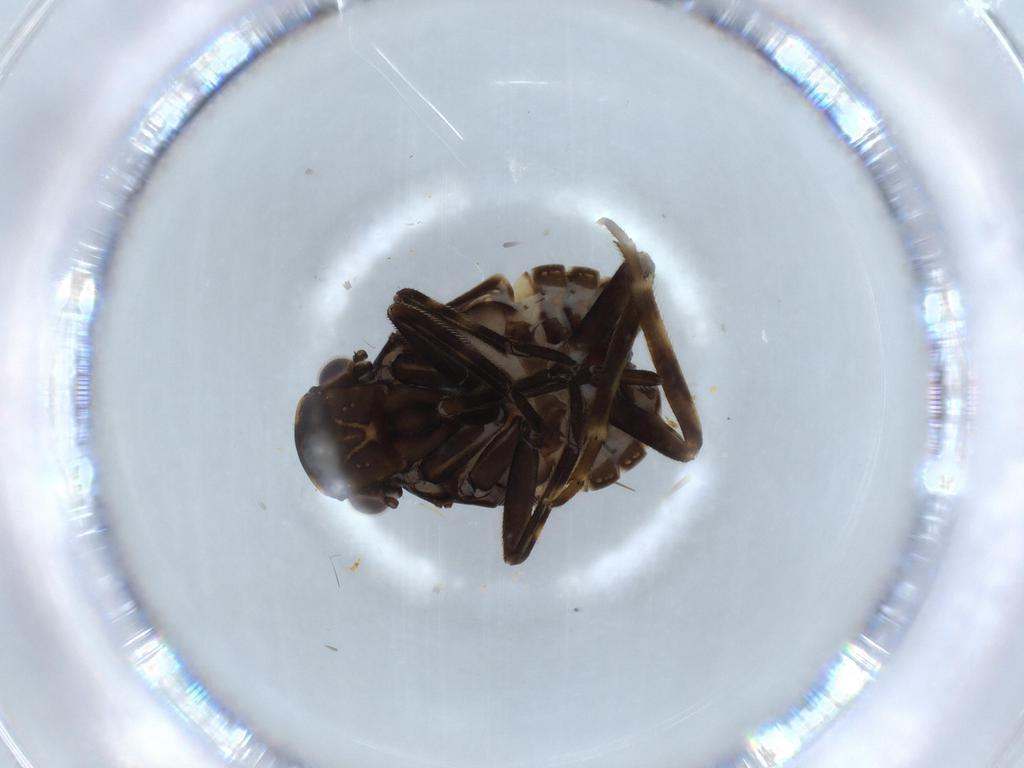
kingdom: Animalia
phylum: Arthropoda
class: Insecta
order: Hemiptera
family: Fulgoridae
